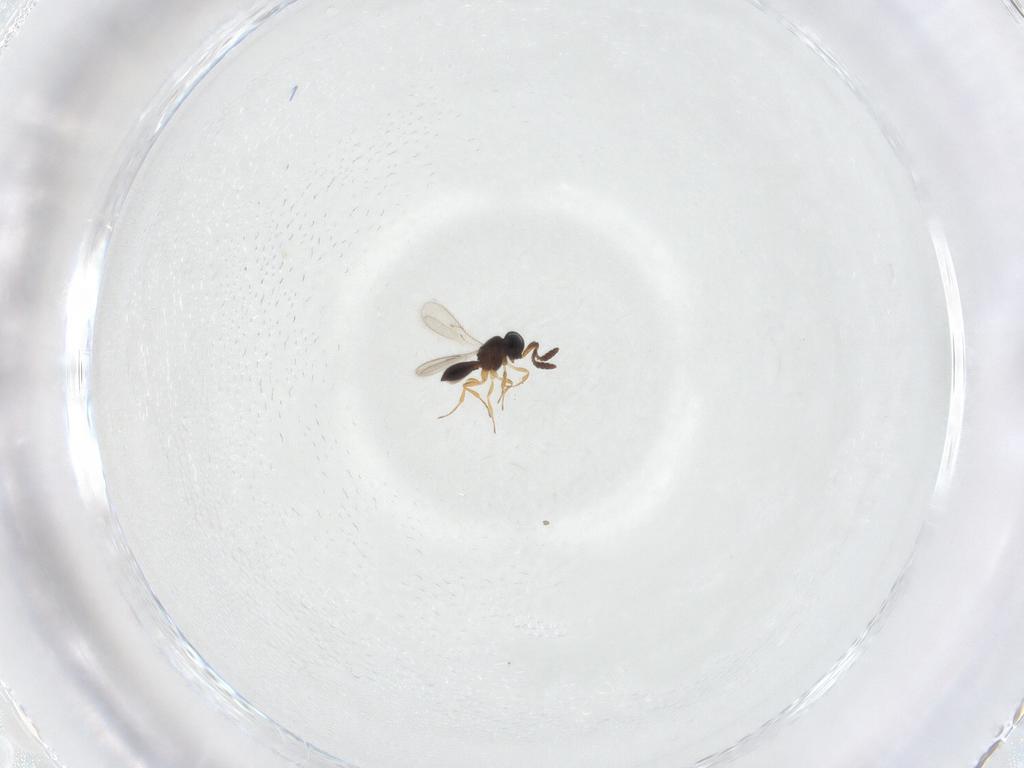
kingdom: Animalia
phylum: Arthropoda
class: Insecta
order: Hymenoptera
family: Scelionidae
